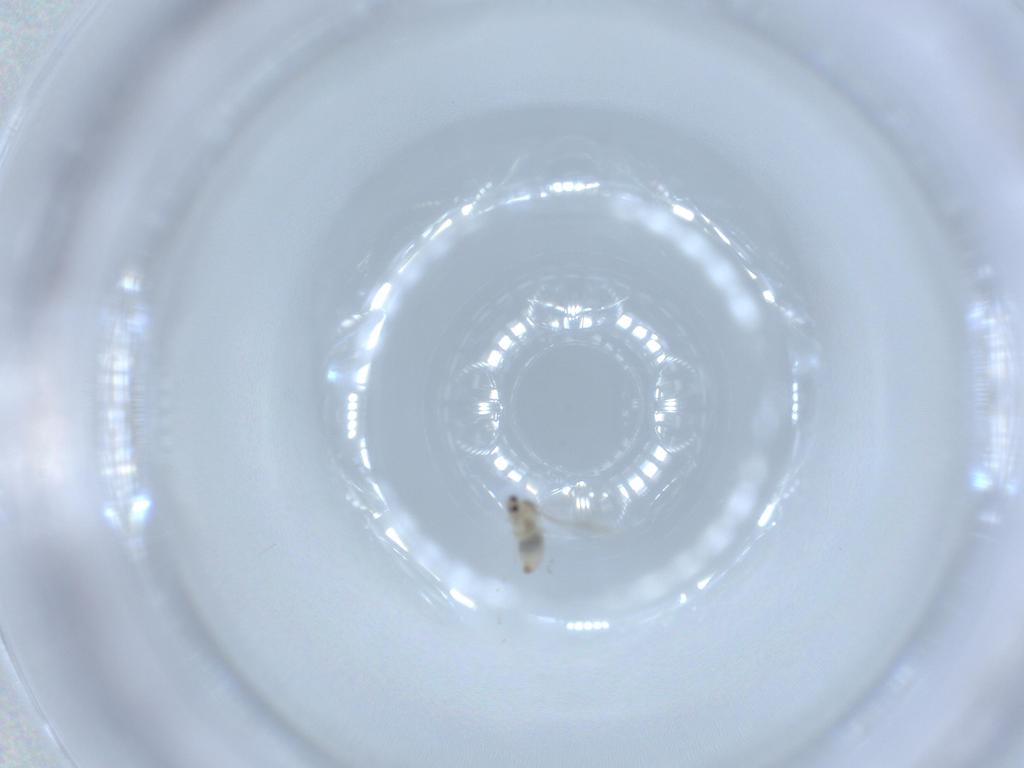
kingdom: Animalia
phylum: Arthropoda
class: Insecta
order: Diptera
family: Cecidomyiidae
